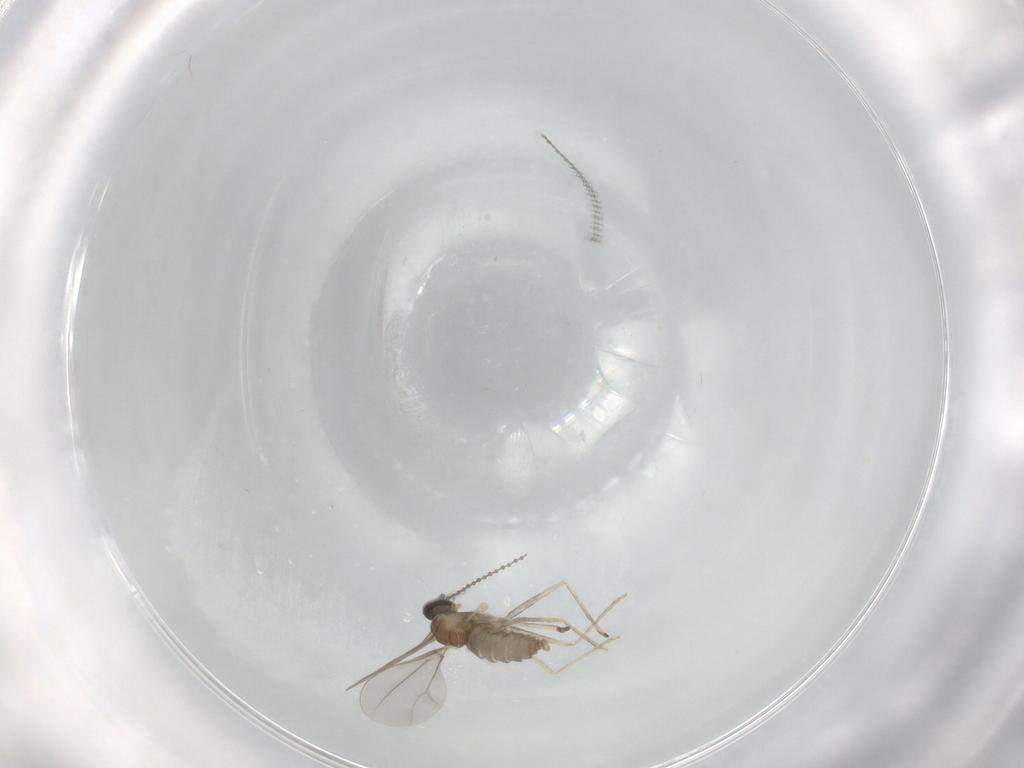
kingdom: Animalia
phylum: Arthropoda
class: Insecta
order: Diptera
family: Cecidomyiidae
